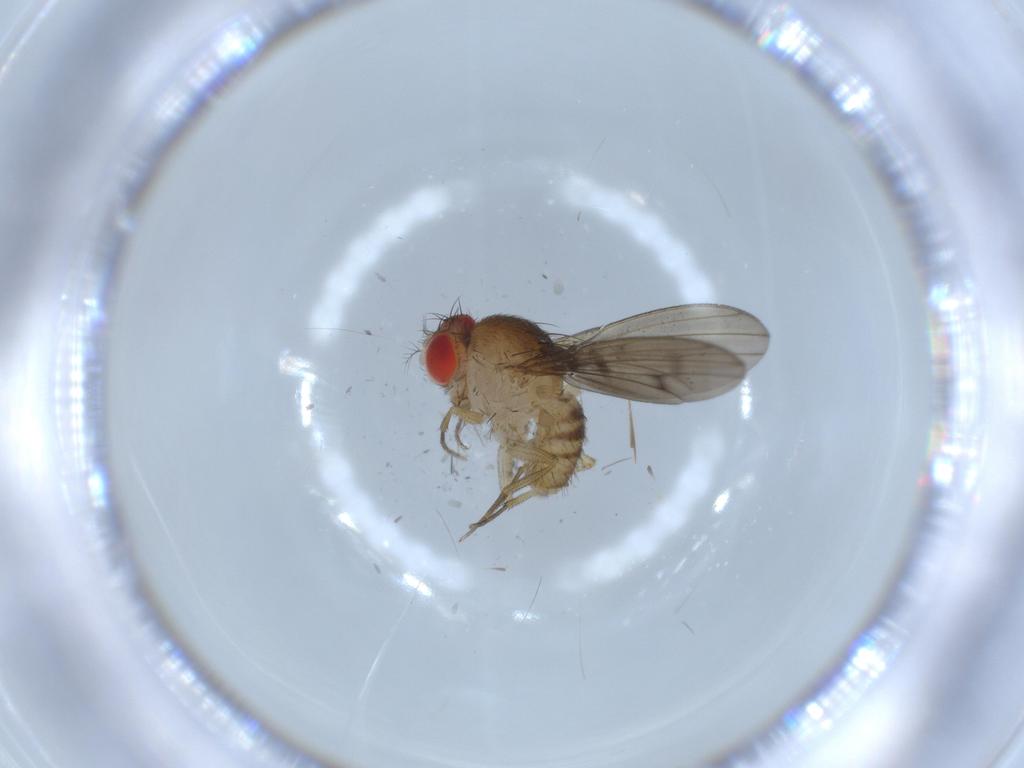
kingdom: Animalia
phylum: Arthropoda
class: Insecta
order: Diptera
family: Drosophilidae
